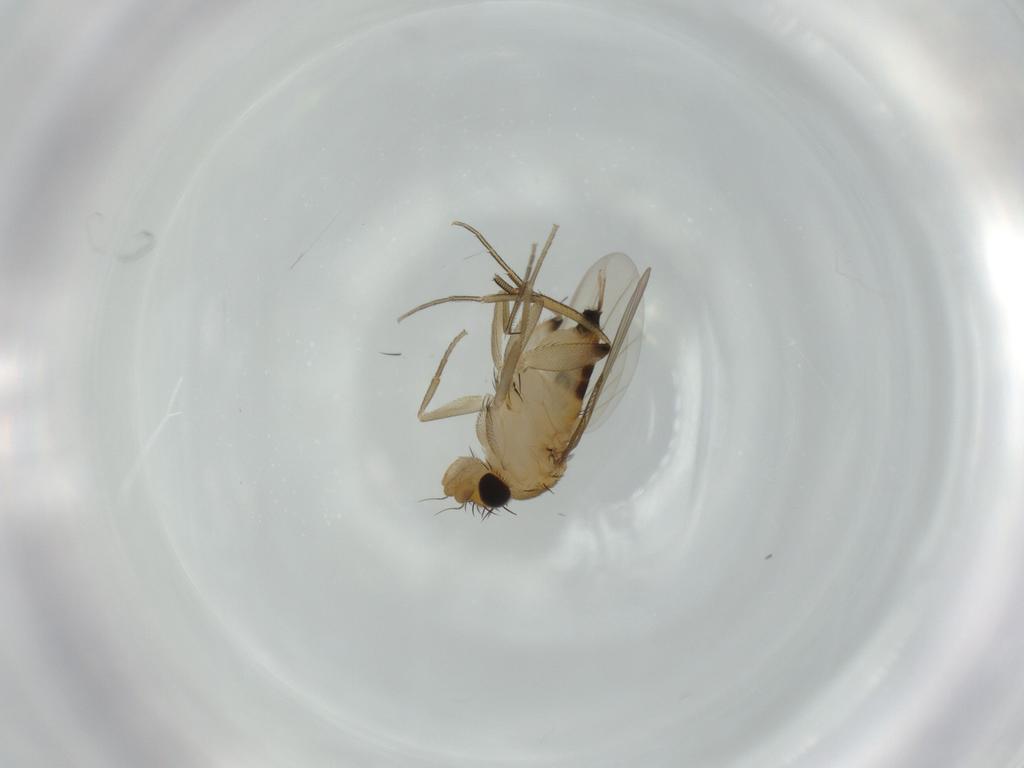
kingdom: Animalia
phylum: Arthropoda
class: Insecta
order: Diptera
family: Phoridae
